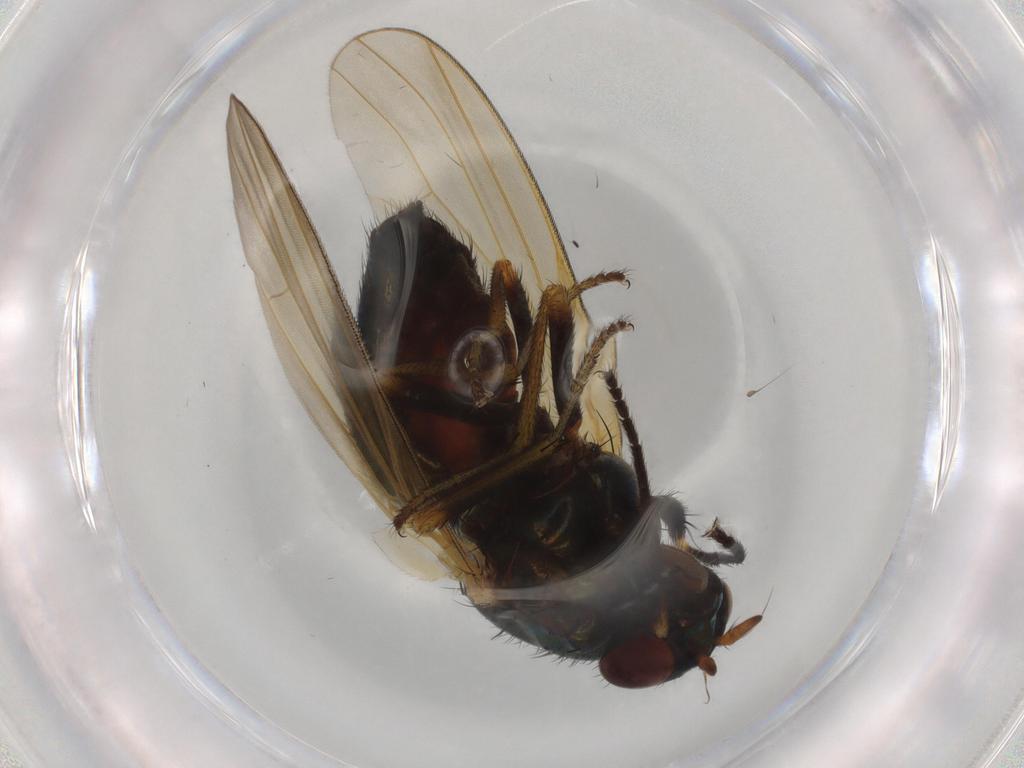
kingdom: Animalia
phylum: Arthropoda
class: Insecta
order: Diptera
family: Lauxaniidae
